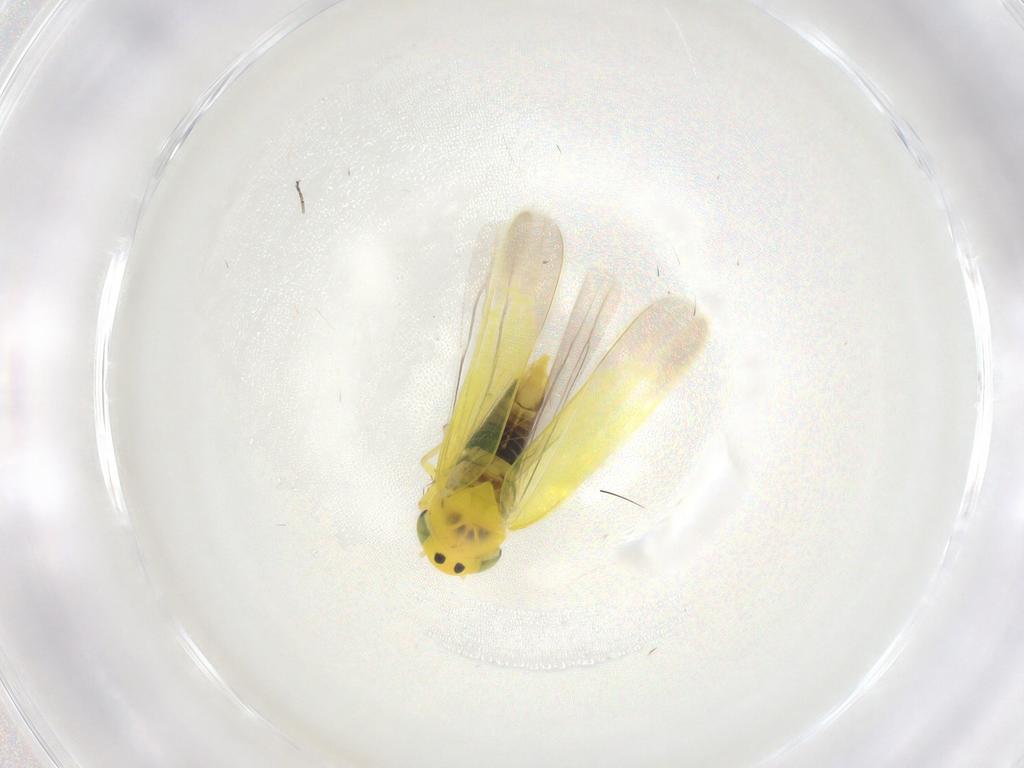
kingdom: Animalia
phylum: Arthropoda
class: Insecta
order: Hemiptera
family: Cicadellidae
